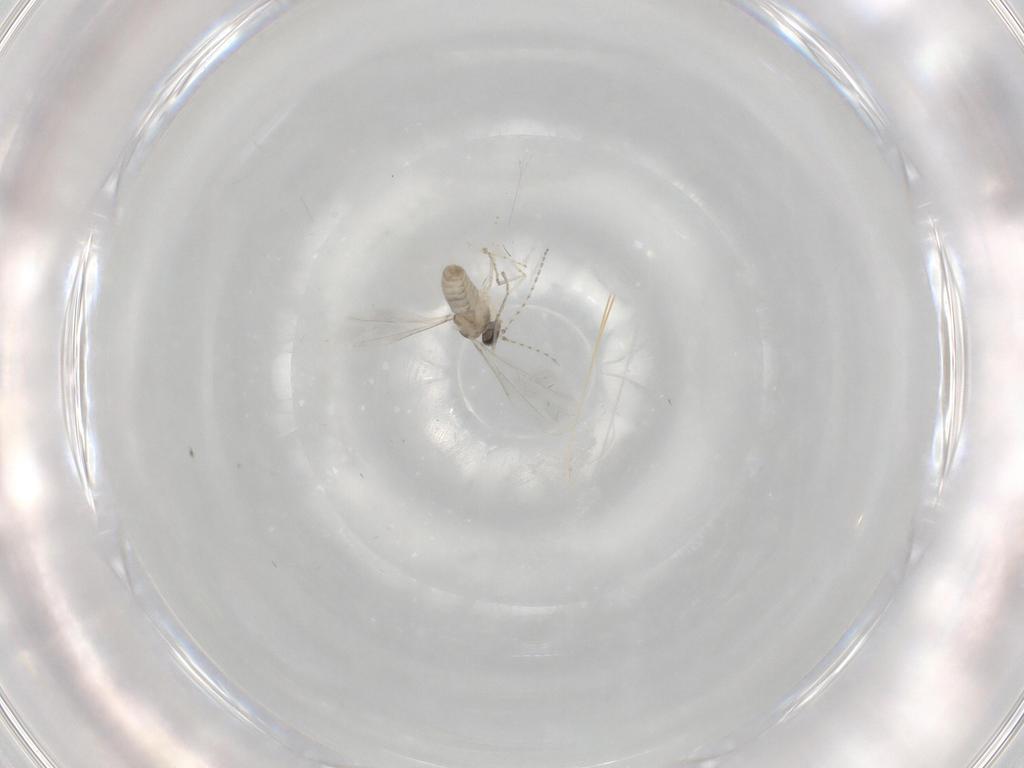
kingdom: Animalia
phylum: Arthropoda
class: Insecta
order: Diptera
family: Cecidomyiidae
